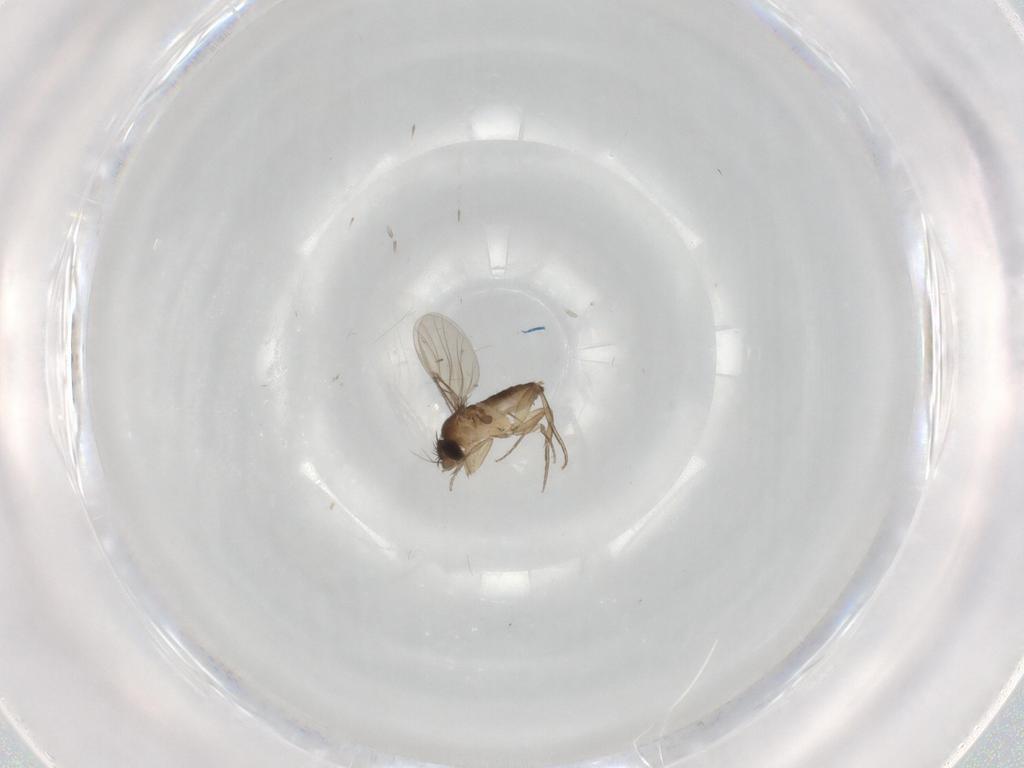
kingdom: Animalia
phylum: Arthropoda
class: Insecta
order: Diptera
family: Phoridae
